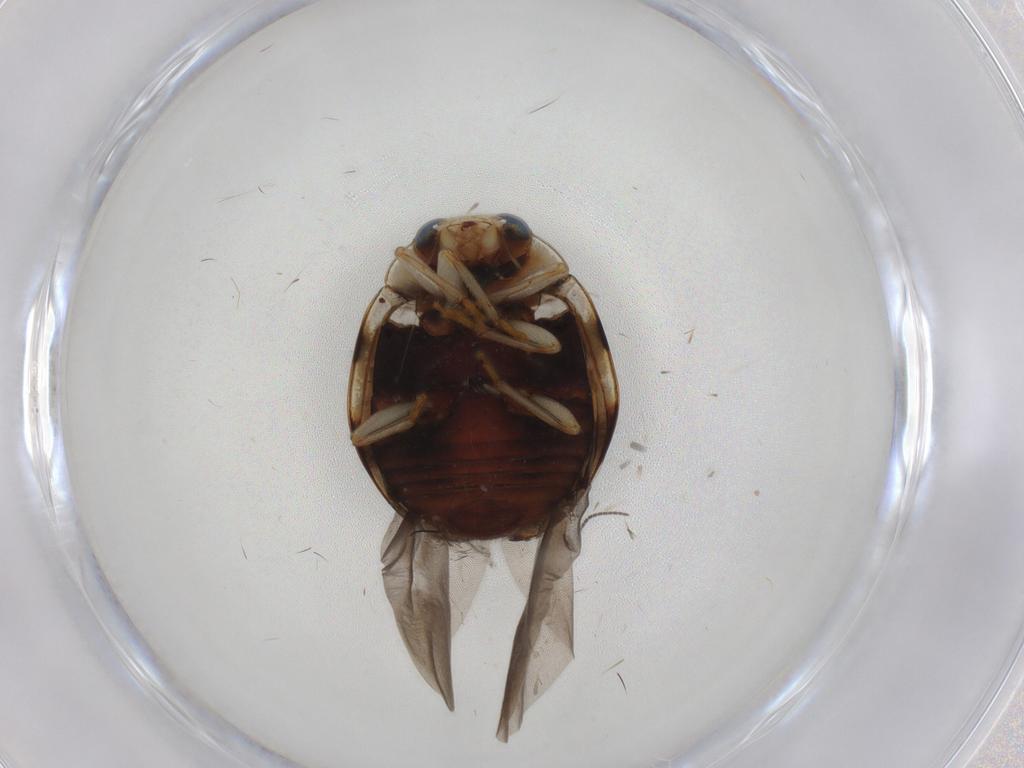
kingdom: Animalia
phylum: Arthropoda
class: Insecta
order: Coleoptera
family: Coccinellidae
